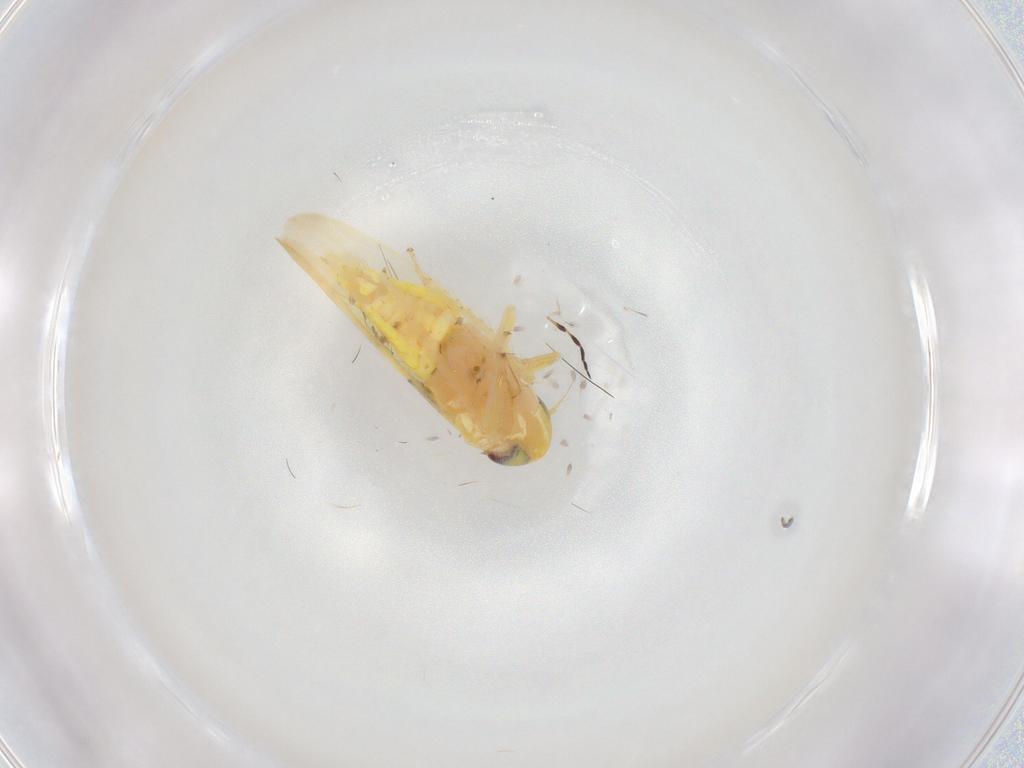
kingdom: Animalia
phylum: Arthropoda
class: Insecta
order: Hemiptera
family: Cicadellidae
